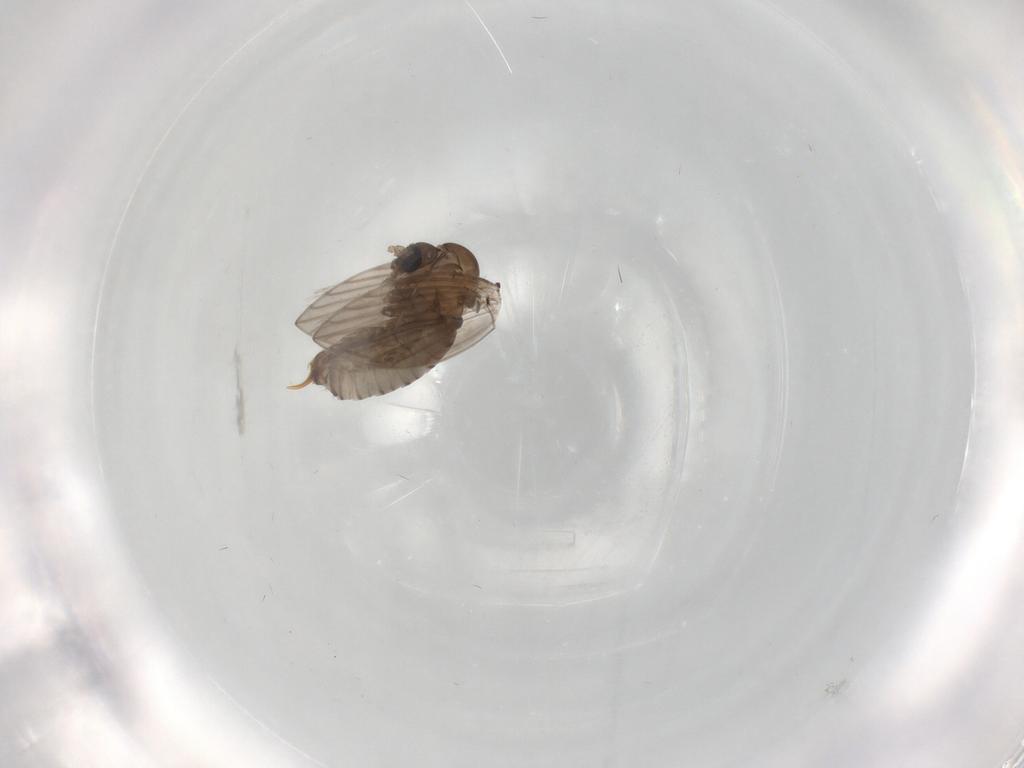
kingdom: Animalia
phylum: Arthropoda
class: Insecta
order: Diptera
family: Psychodidae
